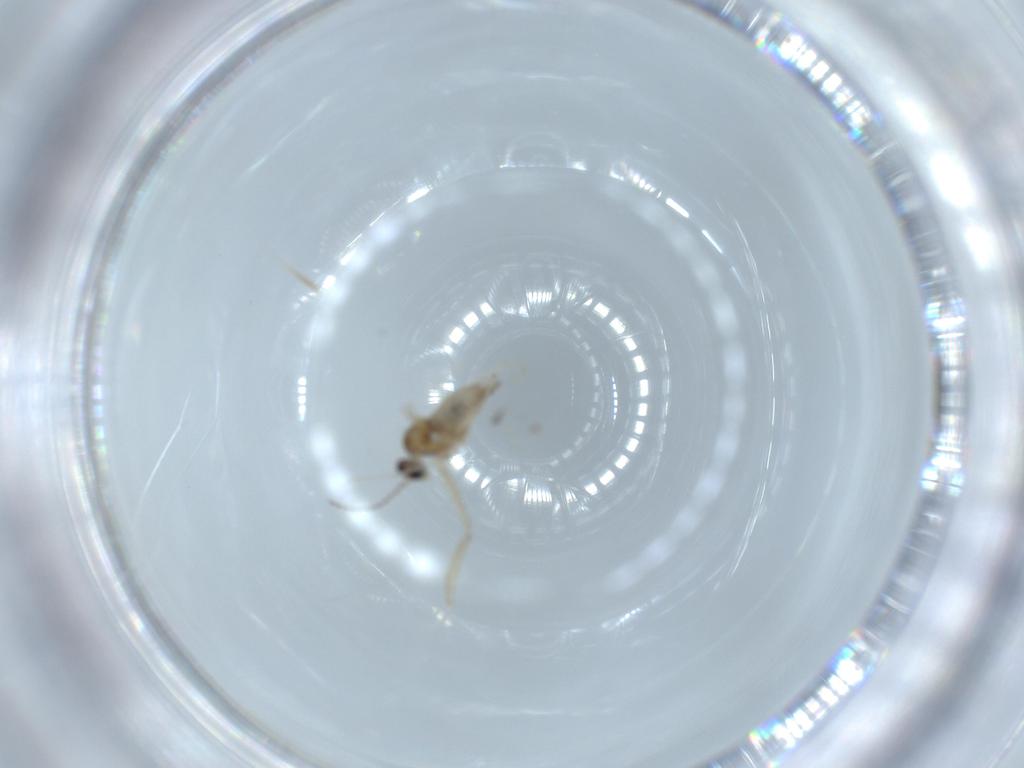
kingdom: Animalia
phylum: Arthropoda
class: Insecta
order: Diptera
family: Cecidomyiidae
